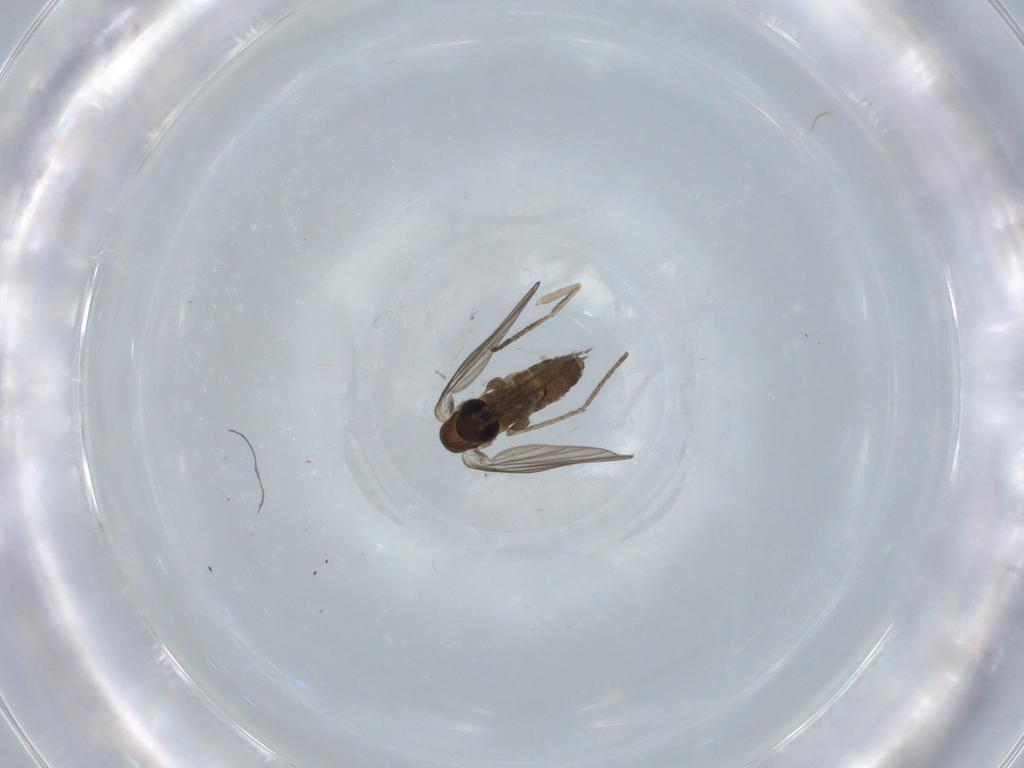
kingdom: Animalia
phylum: Arthropoda
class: Insecta
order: Diptera
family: Psychodidae
